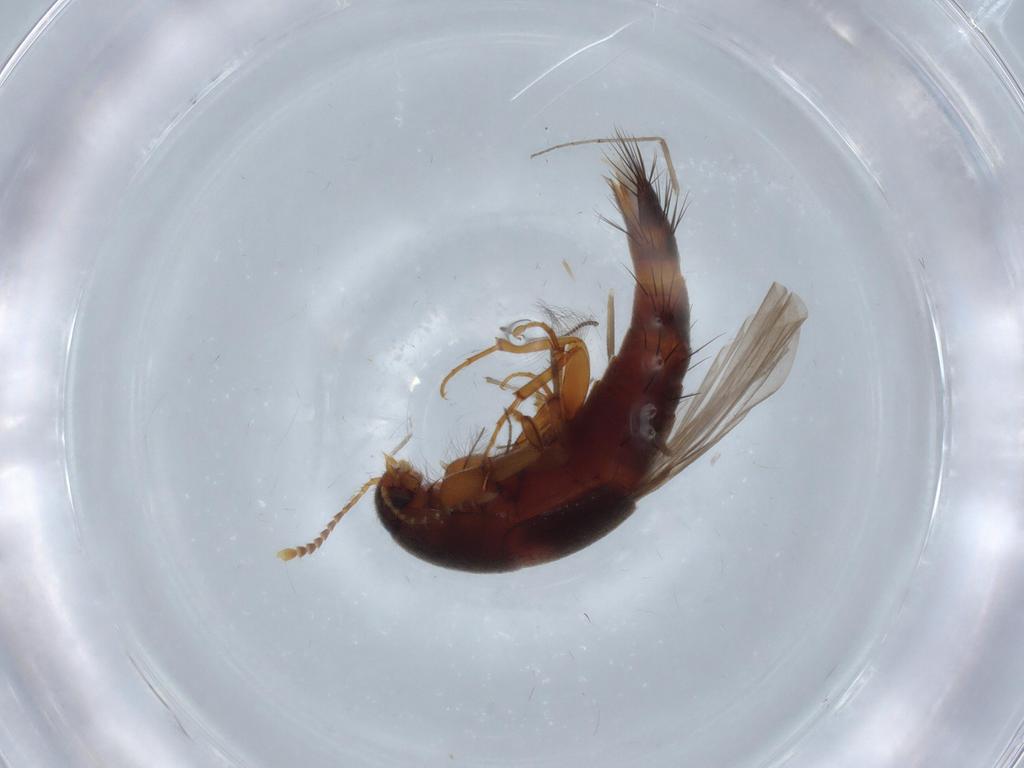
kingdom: Animalia
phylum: Arthropoda
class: Insecta
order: Coleoptera
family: Staphylinidae
